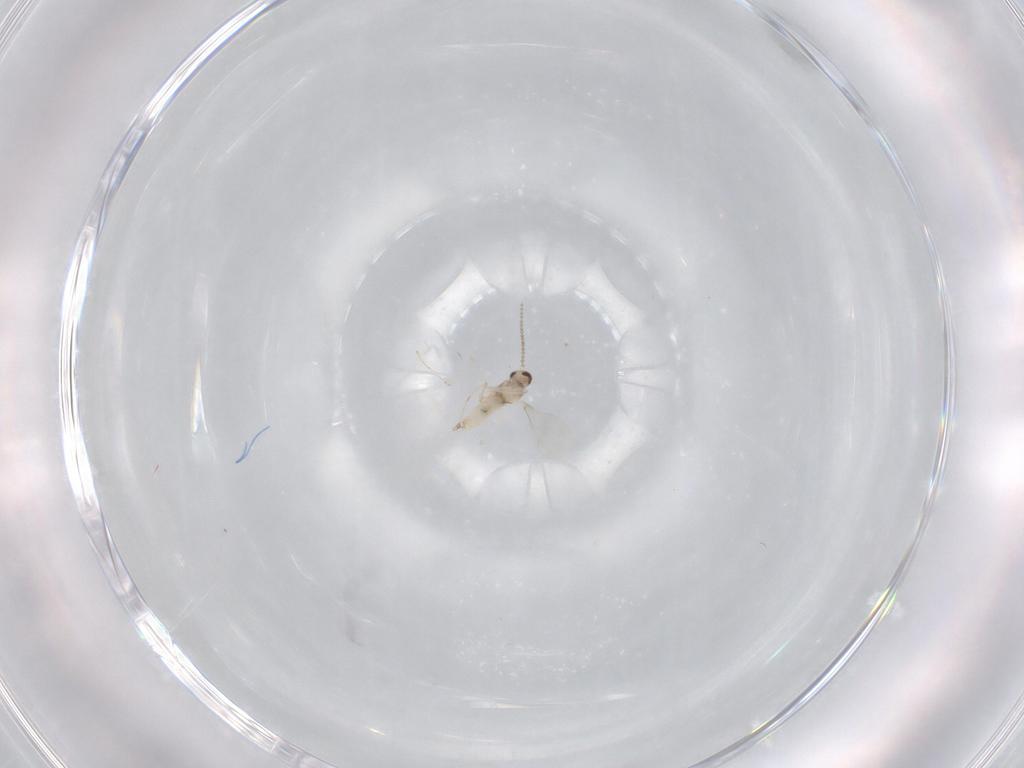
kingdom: Animalia
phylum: Arthropoda
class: Insecta
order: Diptera
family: Cecidomyiidae
